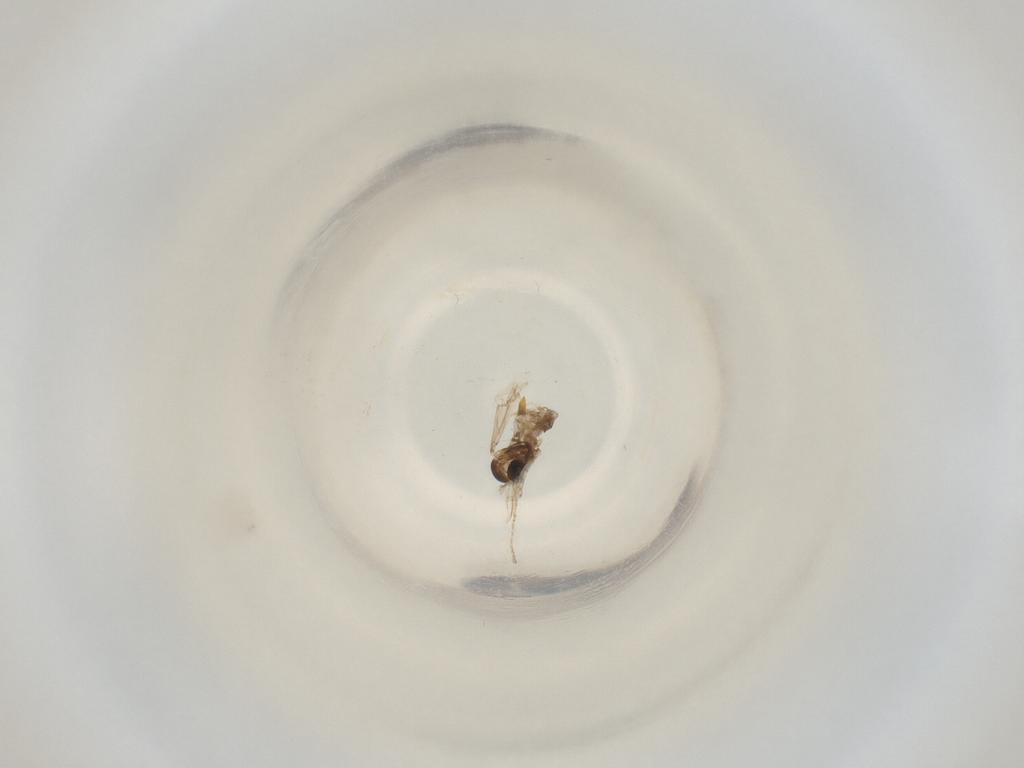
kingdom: Animalia
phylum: Arthropoda
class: Insecta
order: Diptera
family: Cecidomyiidae
